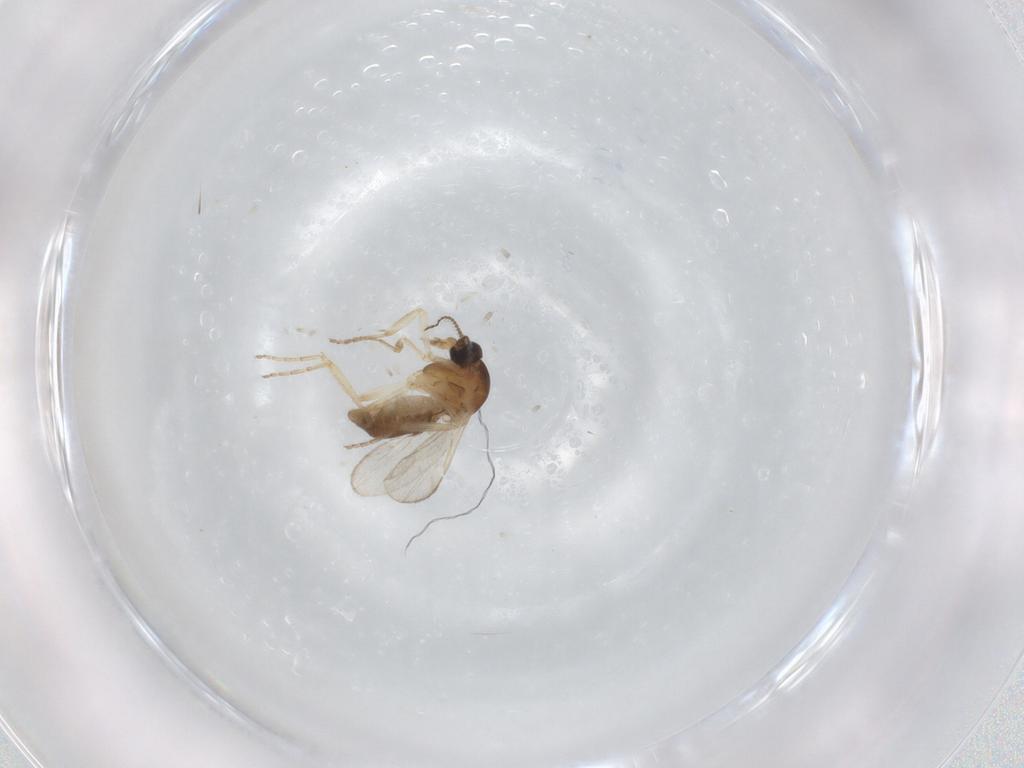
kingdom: Animalia
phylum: Arthropoda
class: Insecta
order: Diptera
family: Ceratopogonidae
